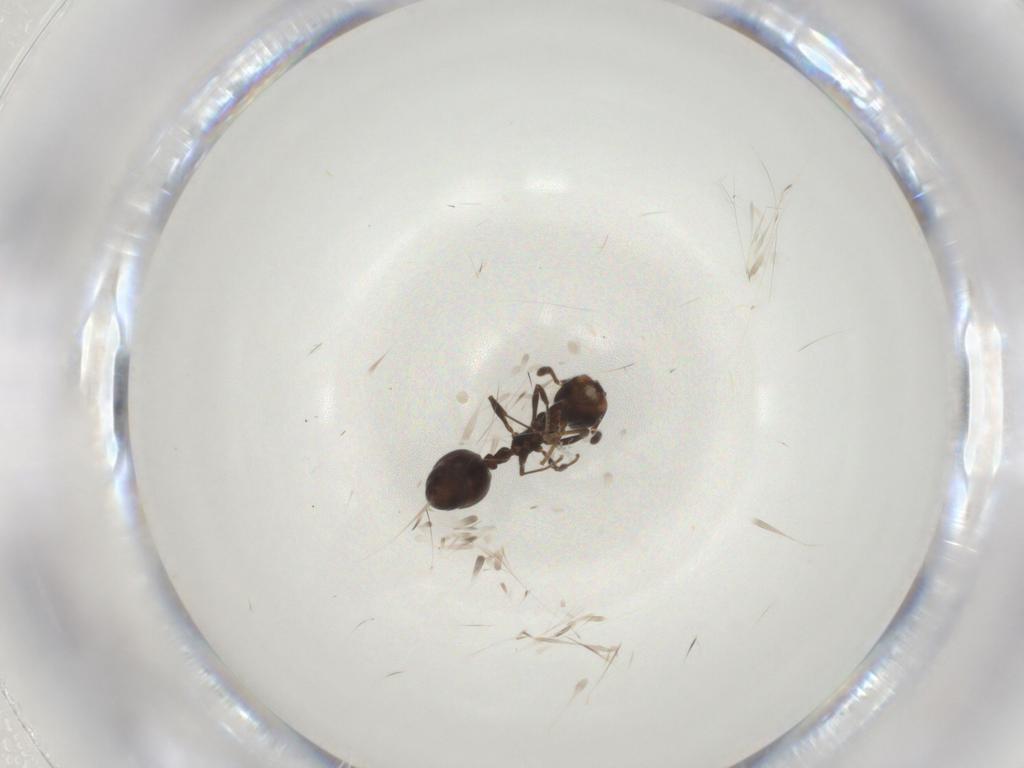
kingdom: Animalia
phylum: Arthropoda
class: Insecta
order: Hymenoptera
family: Formicidae
